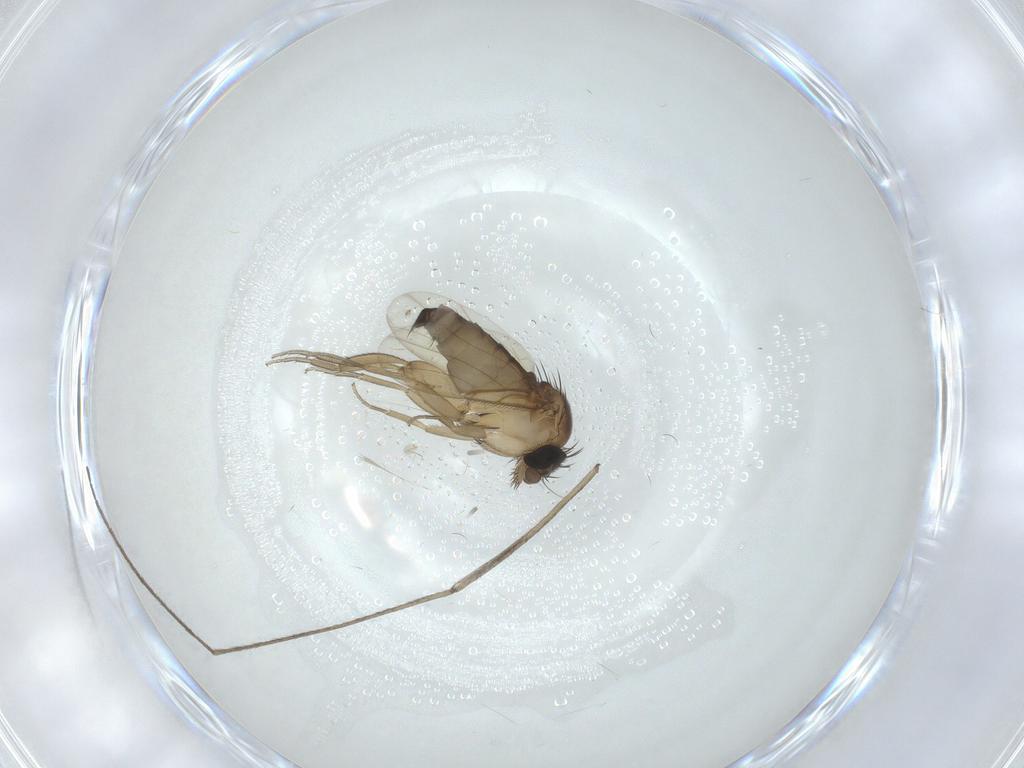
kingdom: Animalia
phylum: Arthropoda
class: Insecta
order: Diptera
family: Phoridae
